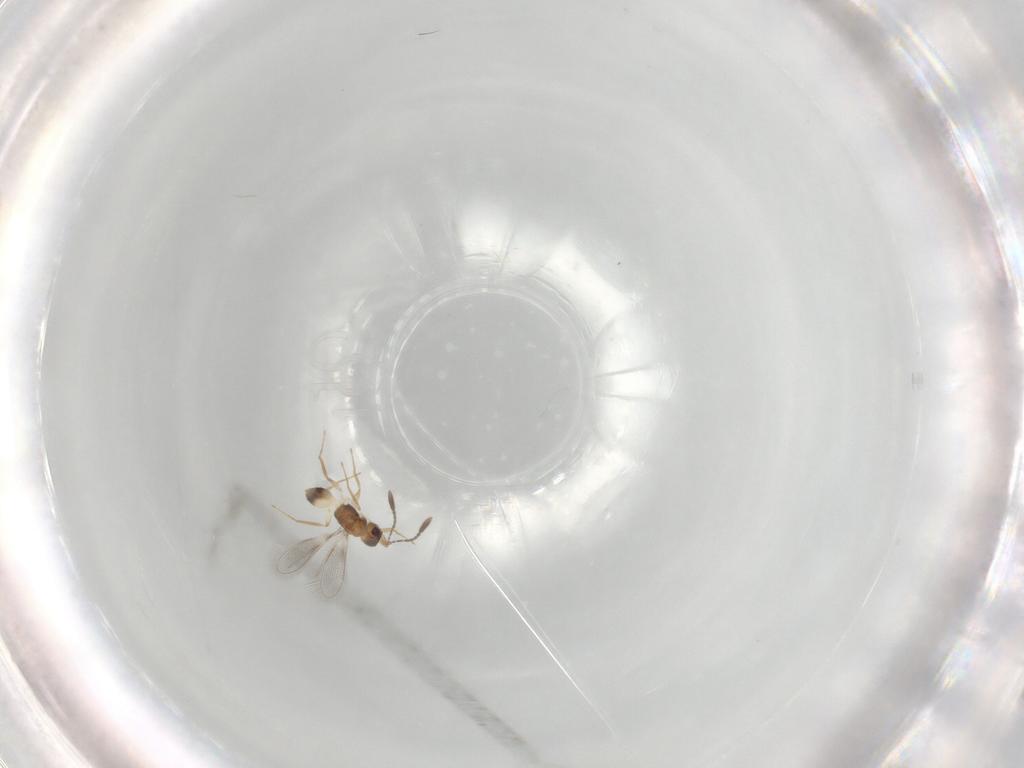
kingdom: Animalia
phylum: Arthropoda
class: Insecta
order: Hymenoptera
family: Mymaridae
